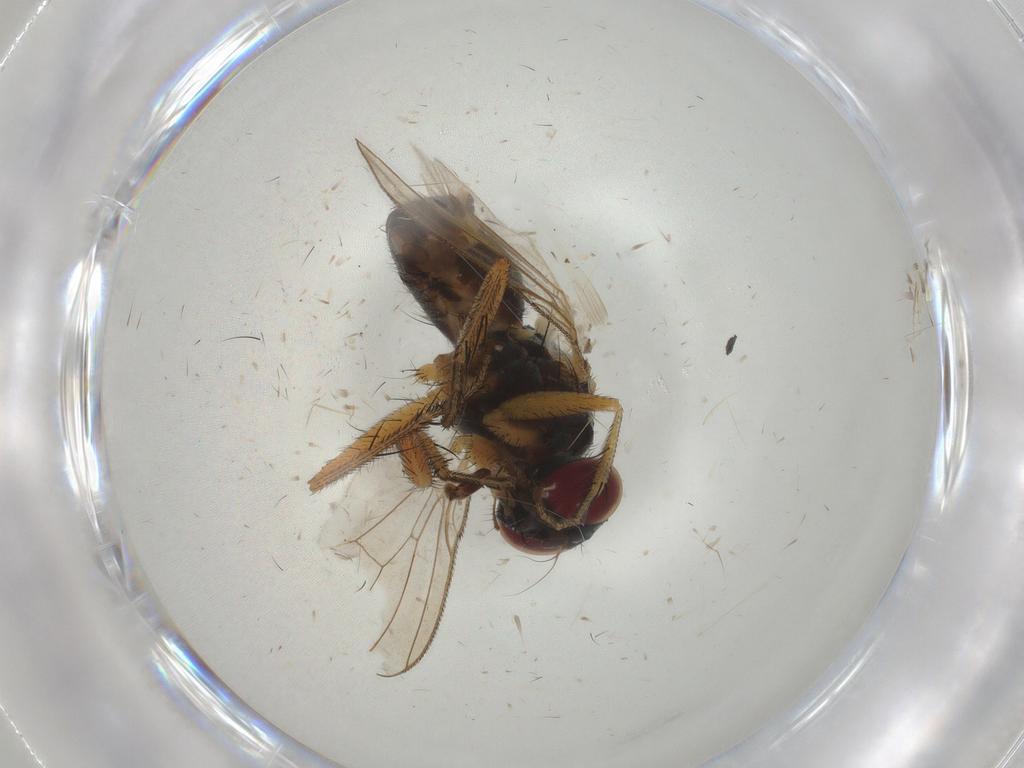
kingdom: Animalia
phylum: Arthropoda
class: Insecta
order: Diptera
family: Muscidae
